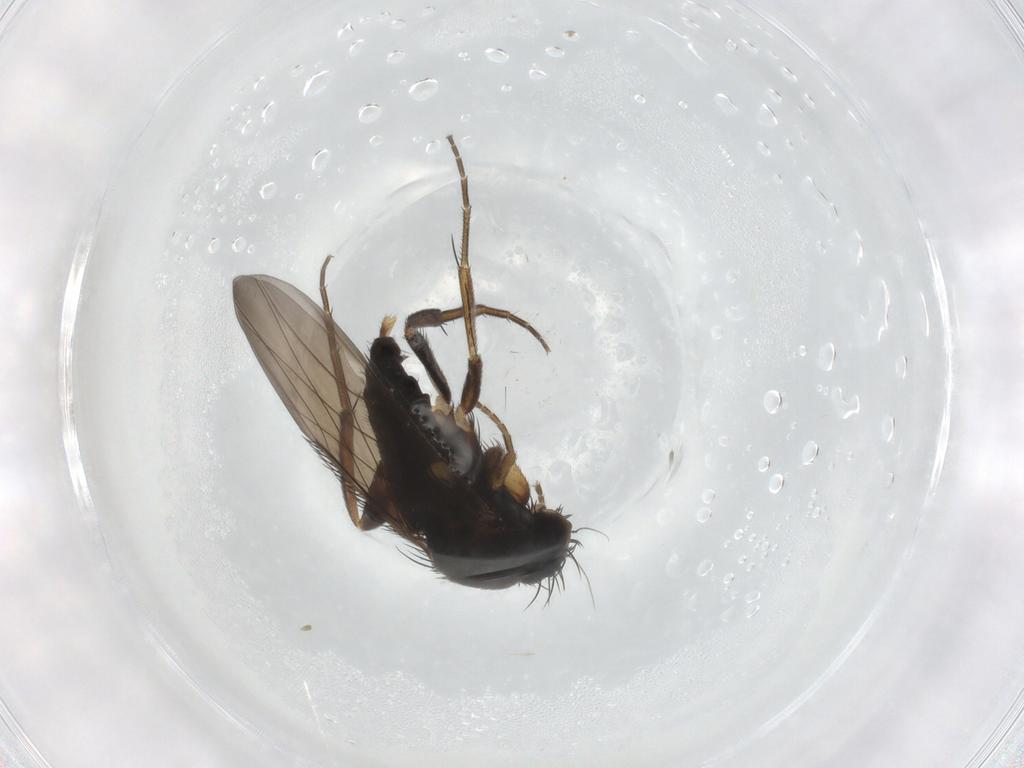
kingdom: Animalia
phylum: Arthropoda
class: Insecta
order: Diptera
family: Phoridae
